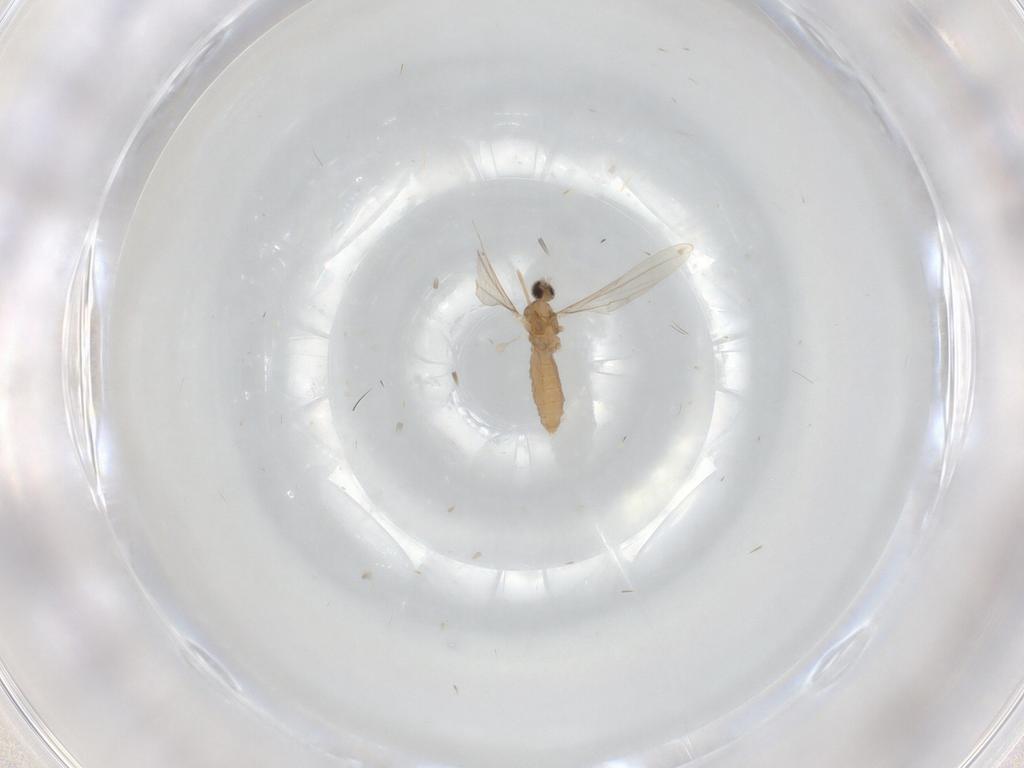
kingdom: Animalia
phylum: Arthropoda
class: Insecta
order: Diptera
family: Cecidomyiidae
